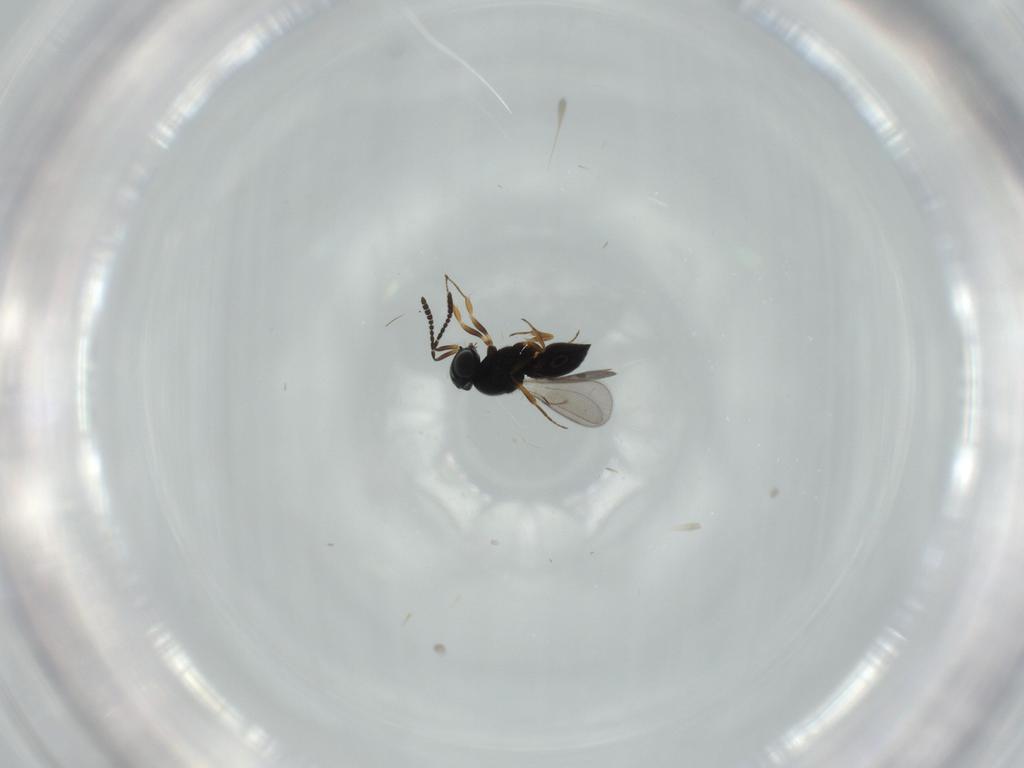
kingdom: Animalia
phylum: Arthropoda
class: Insecta
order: Hymenoptera
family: Scelionidae
